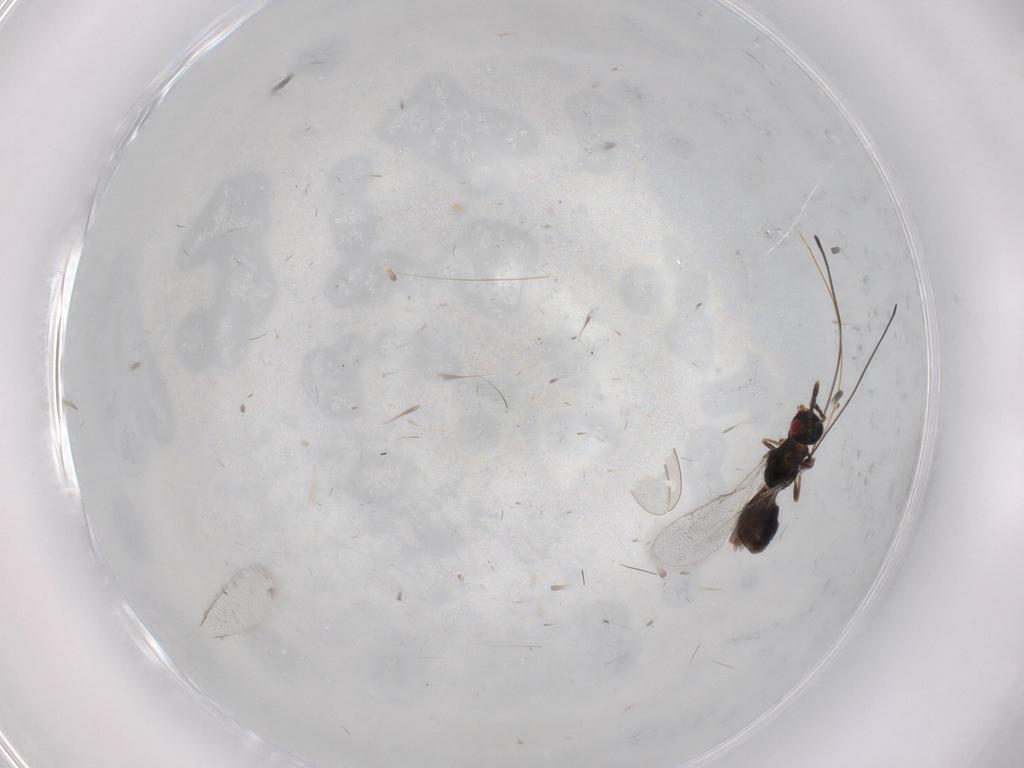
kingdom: Animalia
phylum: Arthropoda
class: Insecta
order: Hymenoptera
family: Torymidae
